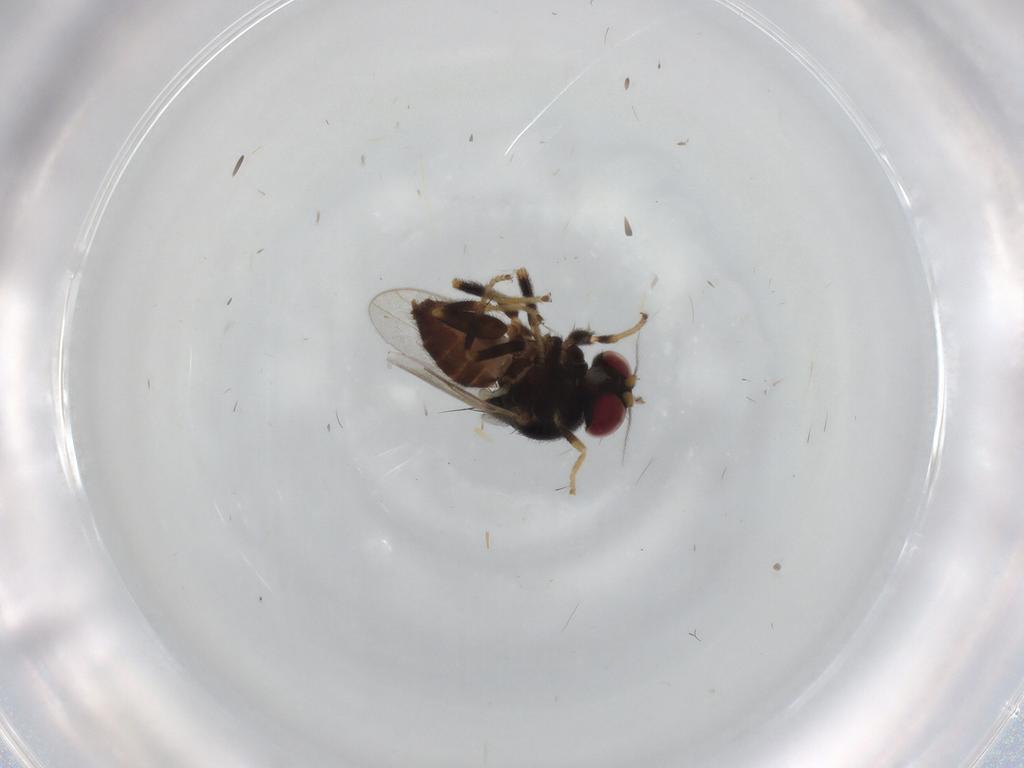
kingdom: Animalia
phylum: Arthropoda
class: Insecta
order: Diptera
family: Chloropidae
